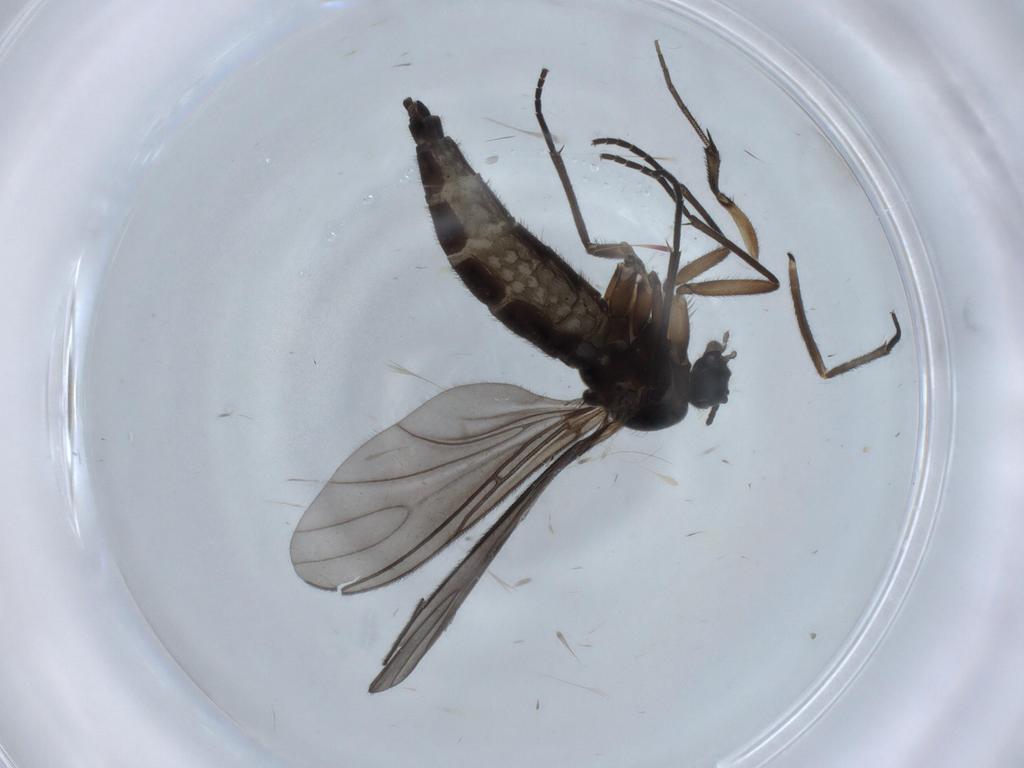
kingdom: Animalia
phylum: Arthropoda
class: Insecta
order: Diptera
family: Sciaridae
